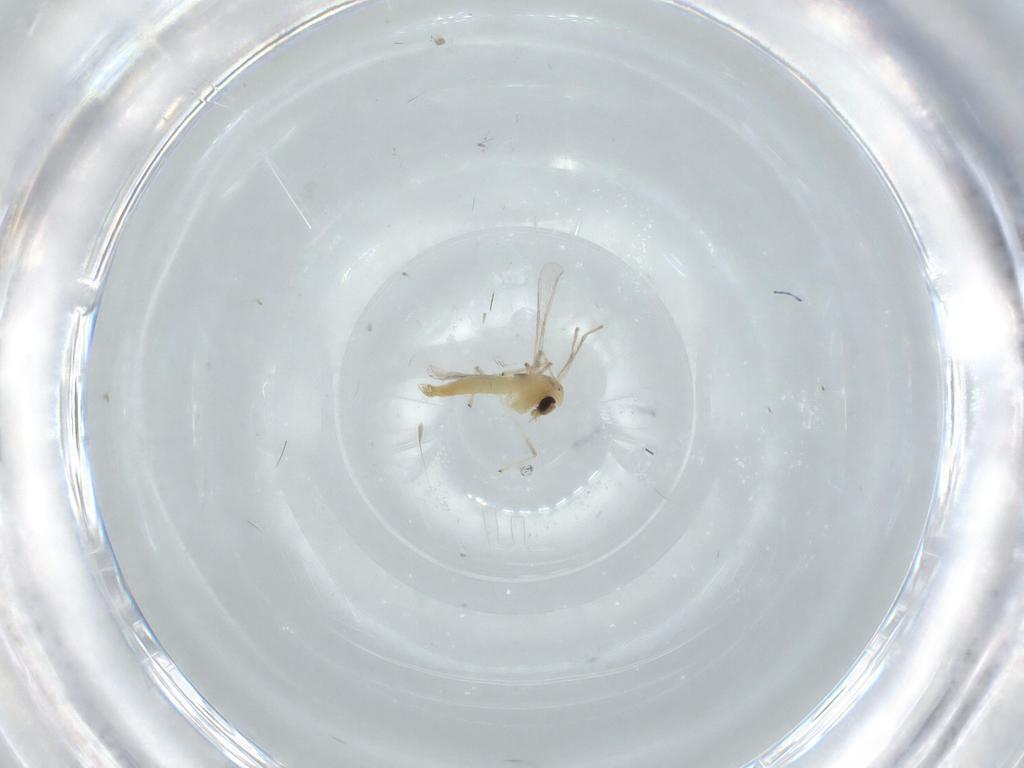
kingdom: Animalia
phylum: Arthropoda
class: Insecta
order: Diptera
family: Chironomidae
